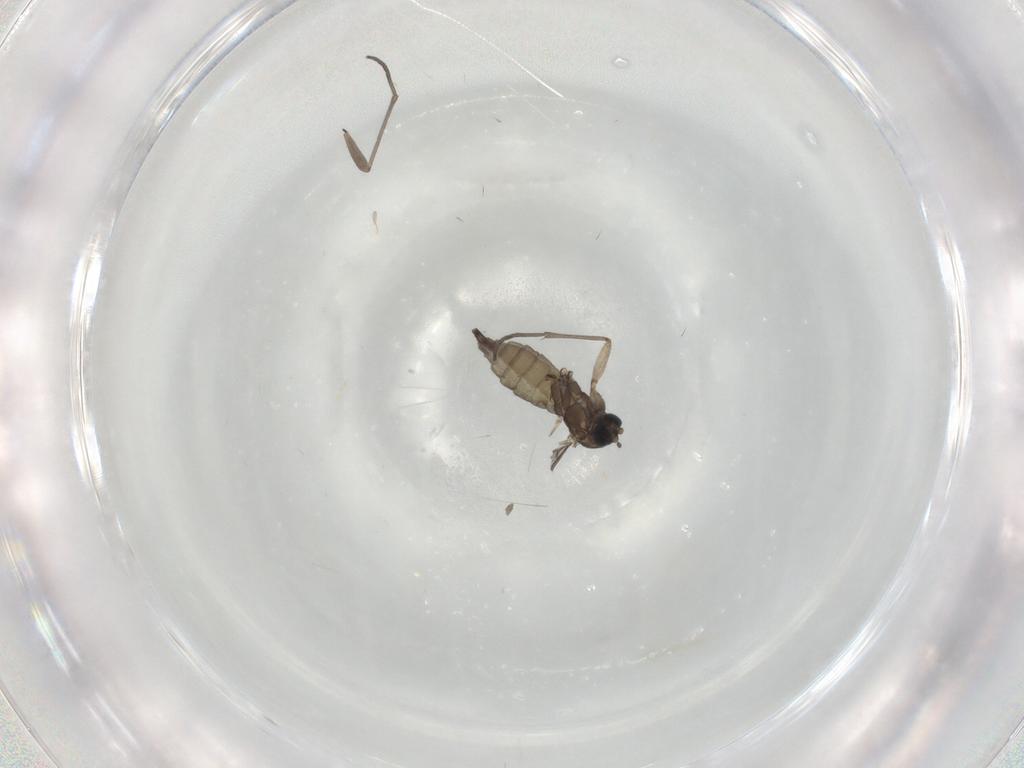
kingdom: Animalia
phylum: Arthropoda
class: Insecta
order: Diptera
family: Sciaridae
